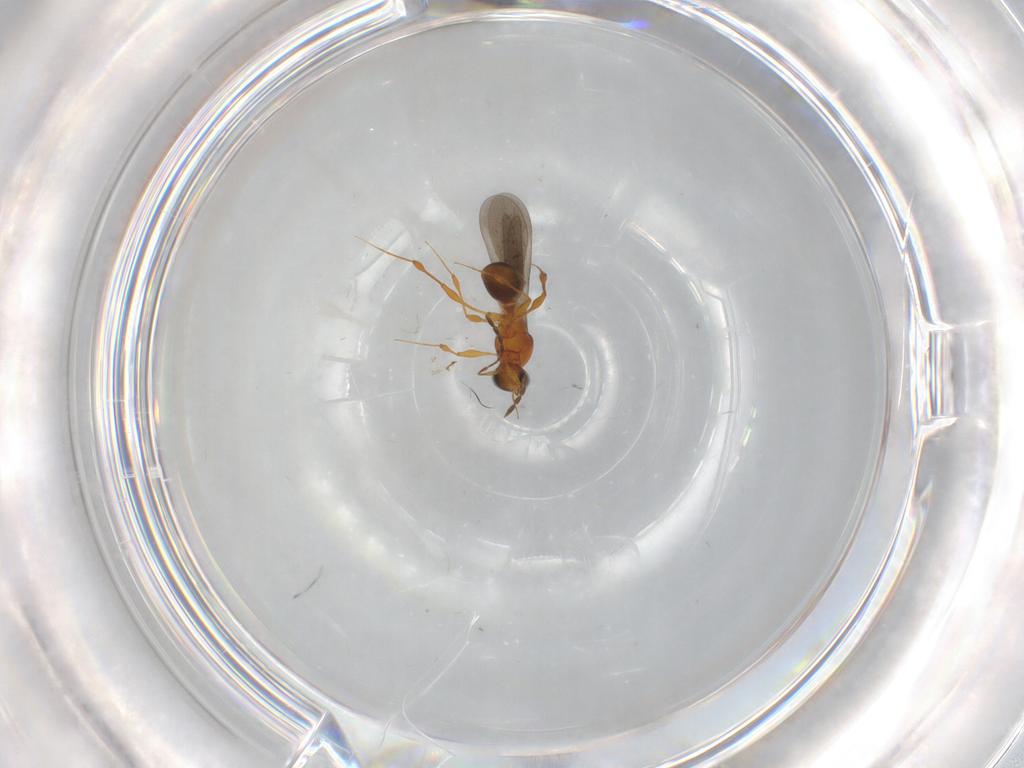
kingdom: Animalia
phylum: Arthropoda
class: Insecta
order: Hymenoptera
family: Platygastridae
